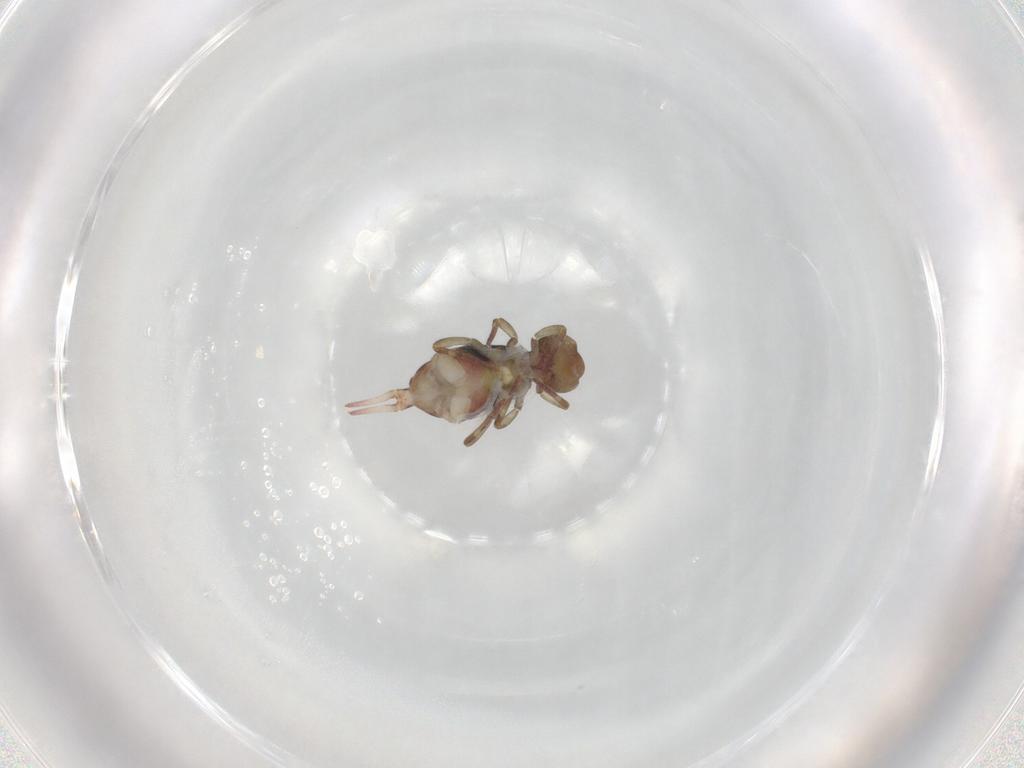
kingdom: Animalia
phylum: Arthropoda
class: Collembola
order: Symphypleona
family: Dicyrtomidae
